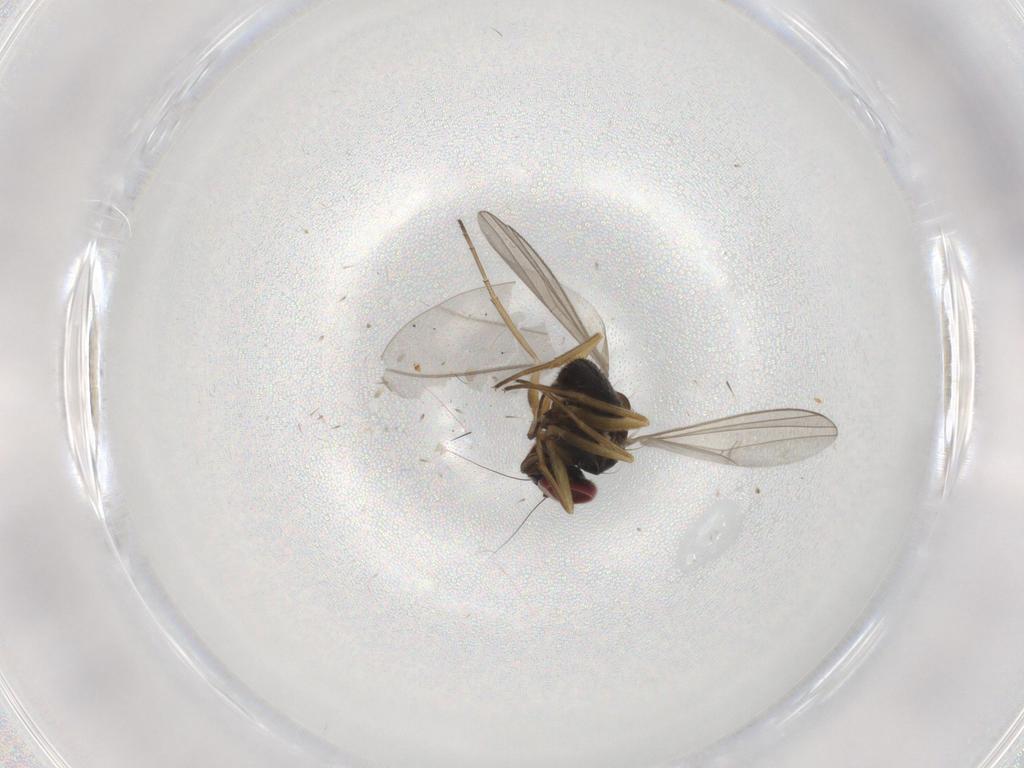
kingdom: Animalia
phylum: Arthropoda
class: Insecta
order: Diptera
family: Dolichopodidae
